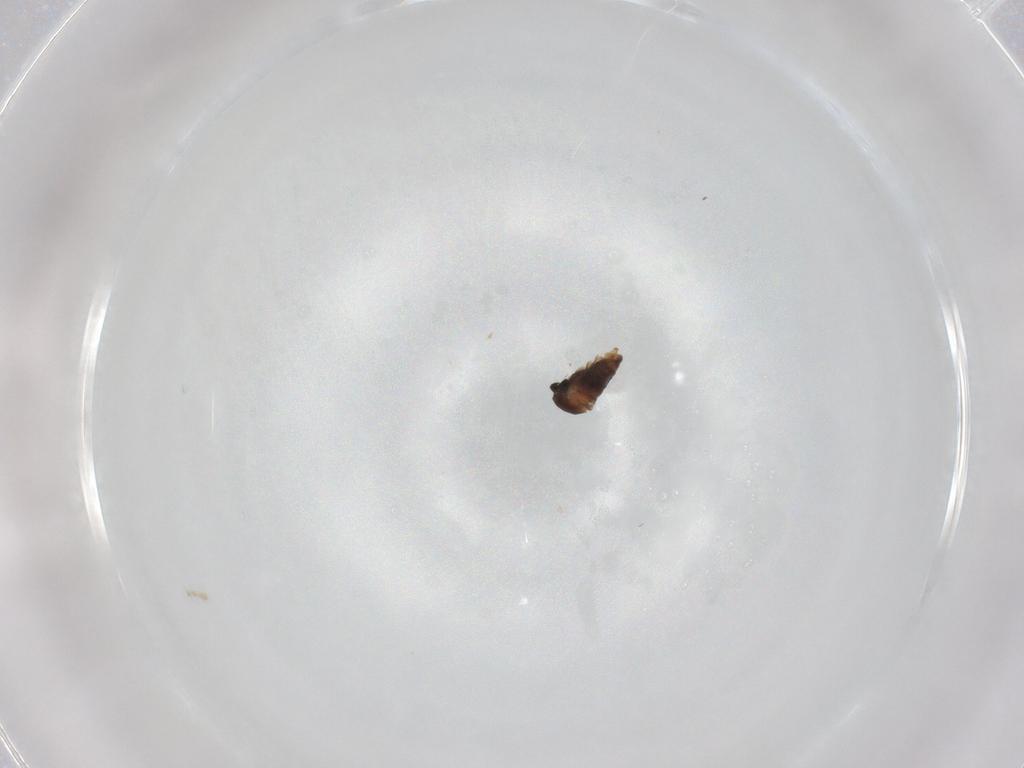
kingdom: Animalia
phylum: Arthropoda
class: Insecta
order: Diptera
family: Cecidomyiidae
